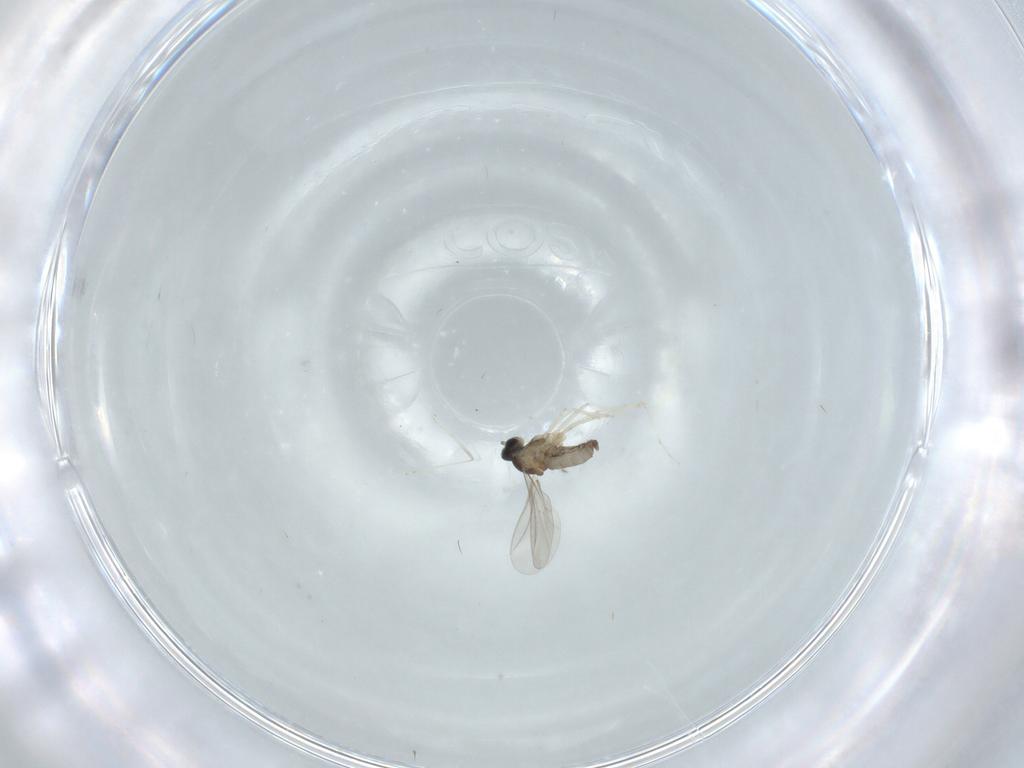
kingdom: Animalia
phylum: Arthropoda
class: Insecta
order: Diptera
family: Cecidomyiidae
